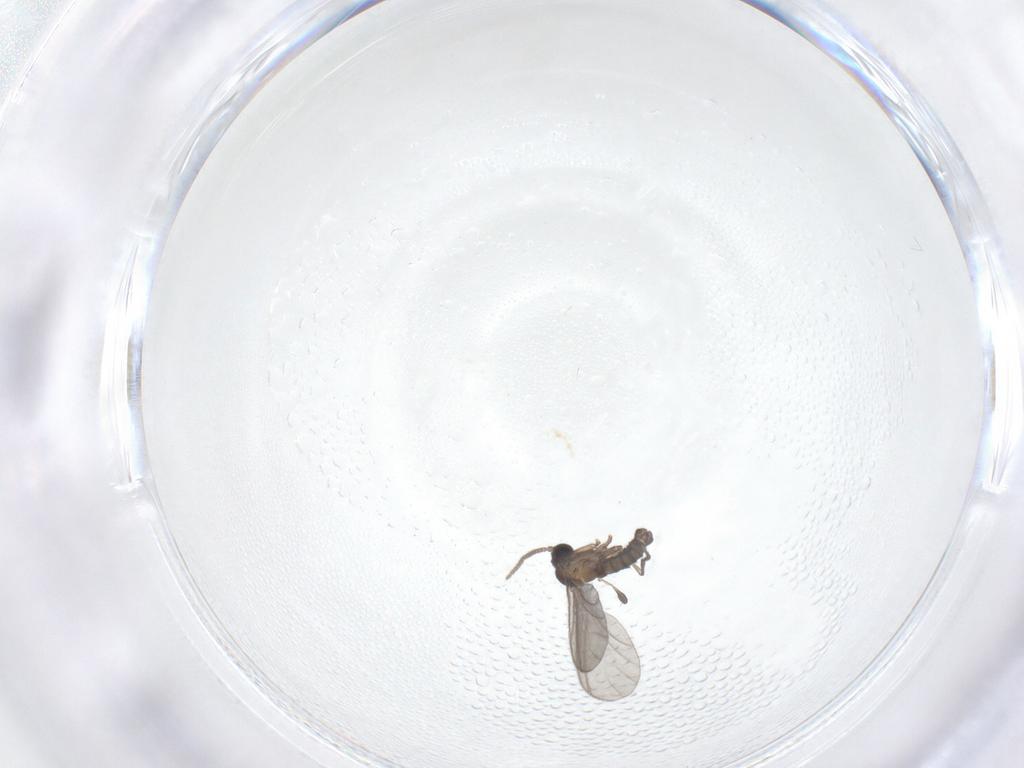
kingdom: Animalia
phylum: Arthropoda
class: Insecta
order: Diptera
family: Sciaridae
